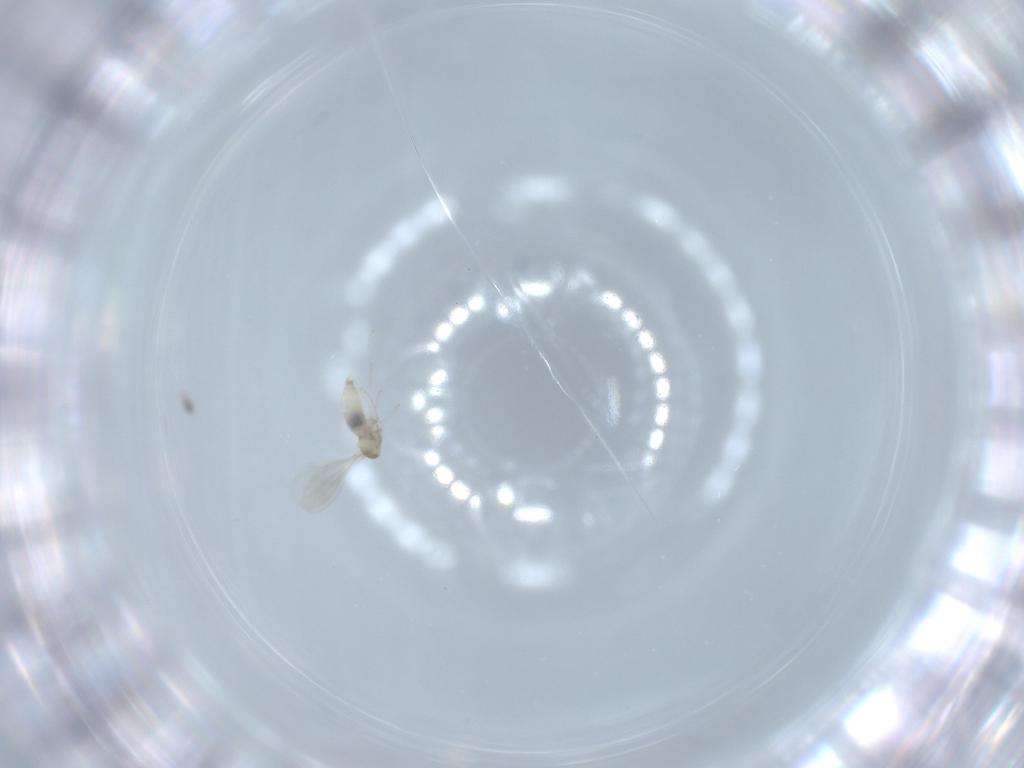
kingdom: Animalia
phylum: Arthropoda
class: Insecta
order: Diptera
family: Cecidomyiidae
